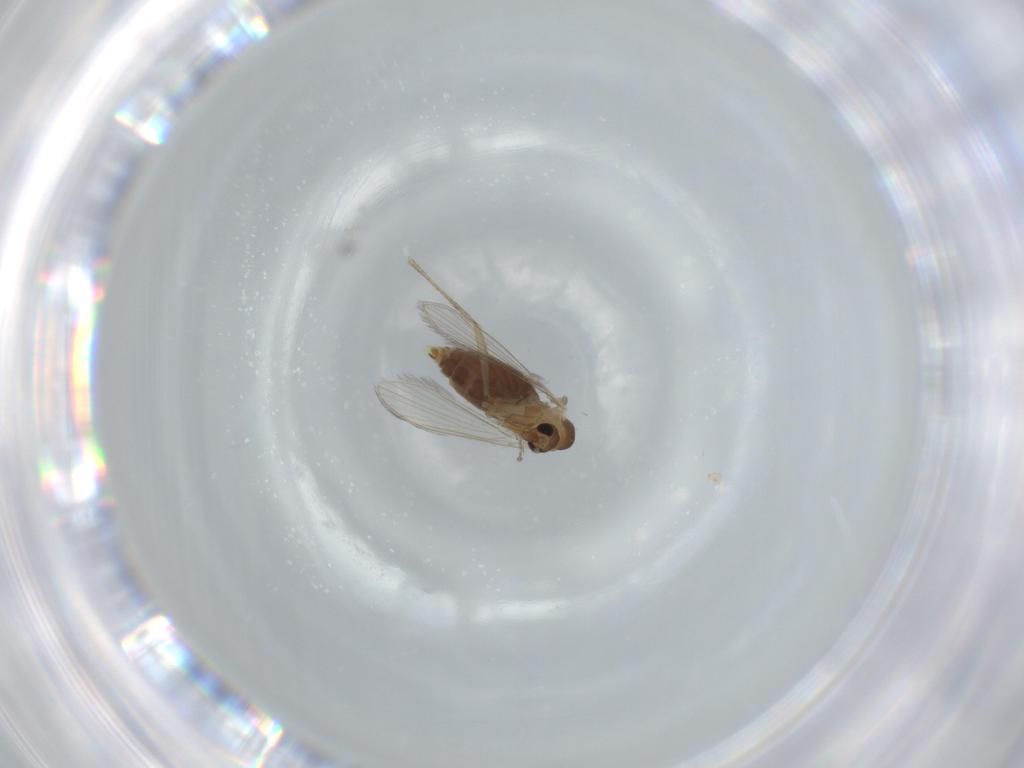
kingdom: Animalia
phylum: Arthropoda
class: Insecta
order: Diptera
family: Psychodidae
